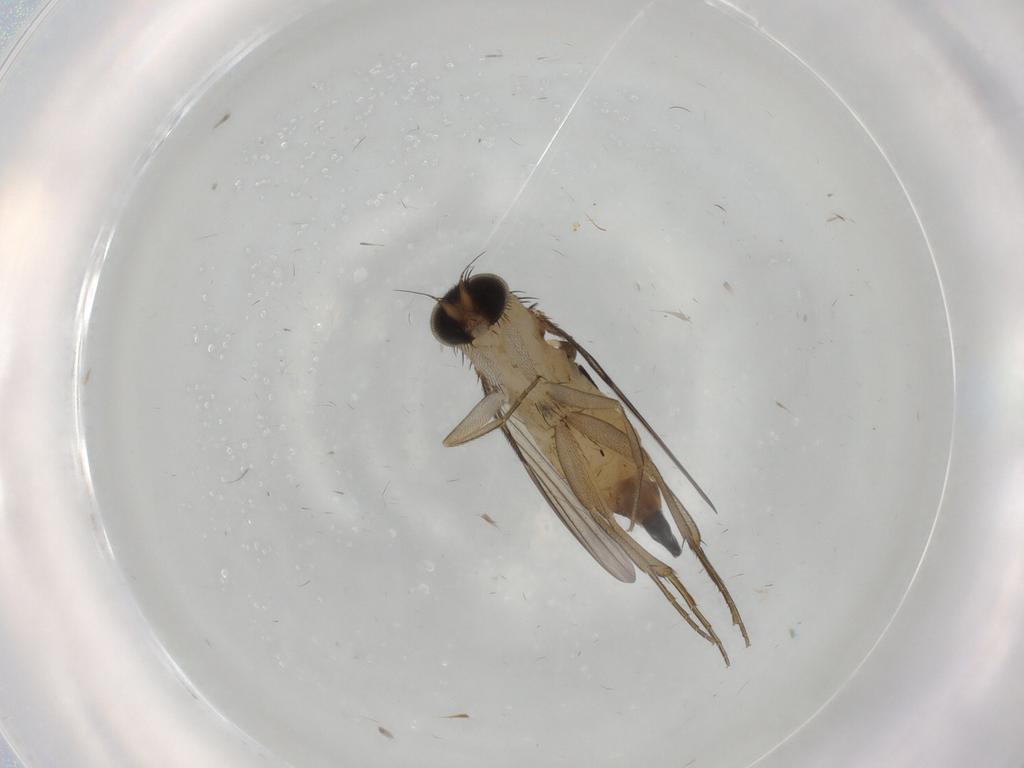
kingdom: Animalia
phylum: Arthropoda
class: Insecta
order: Diptera
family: Phoridae
